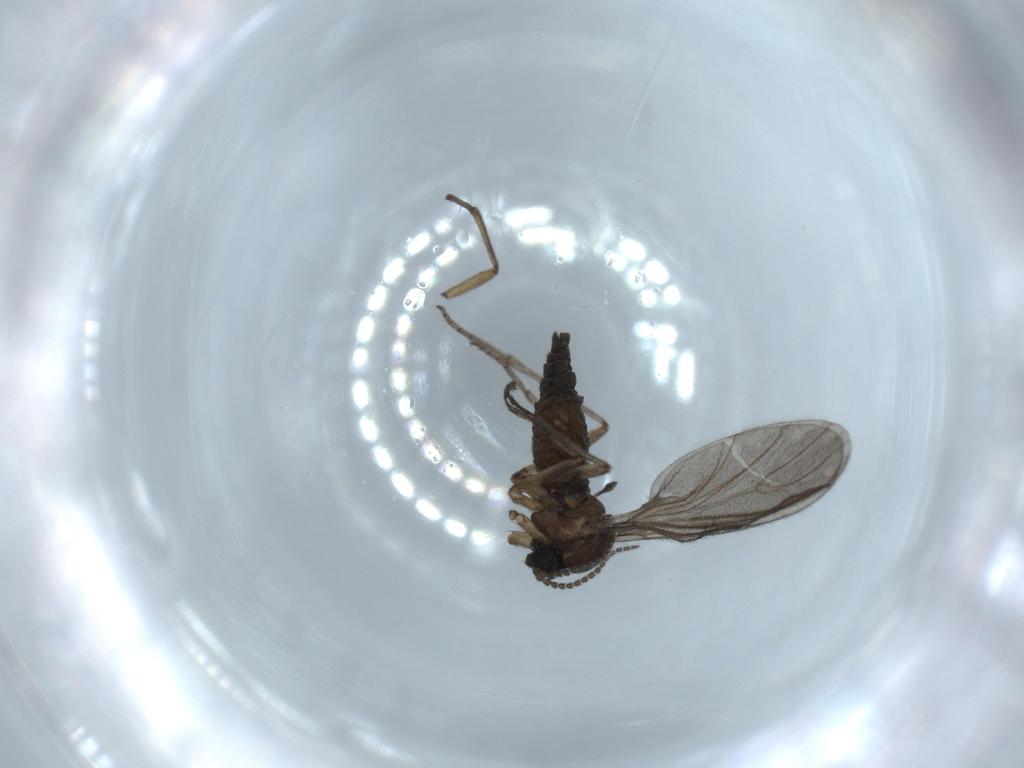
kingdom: Animalia
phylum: Arthropoda
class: Insecta
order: Diptera
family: Sciaridae
